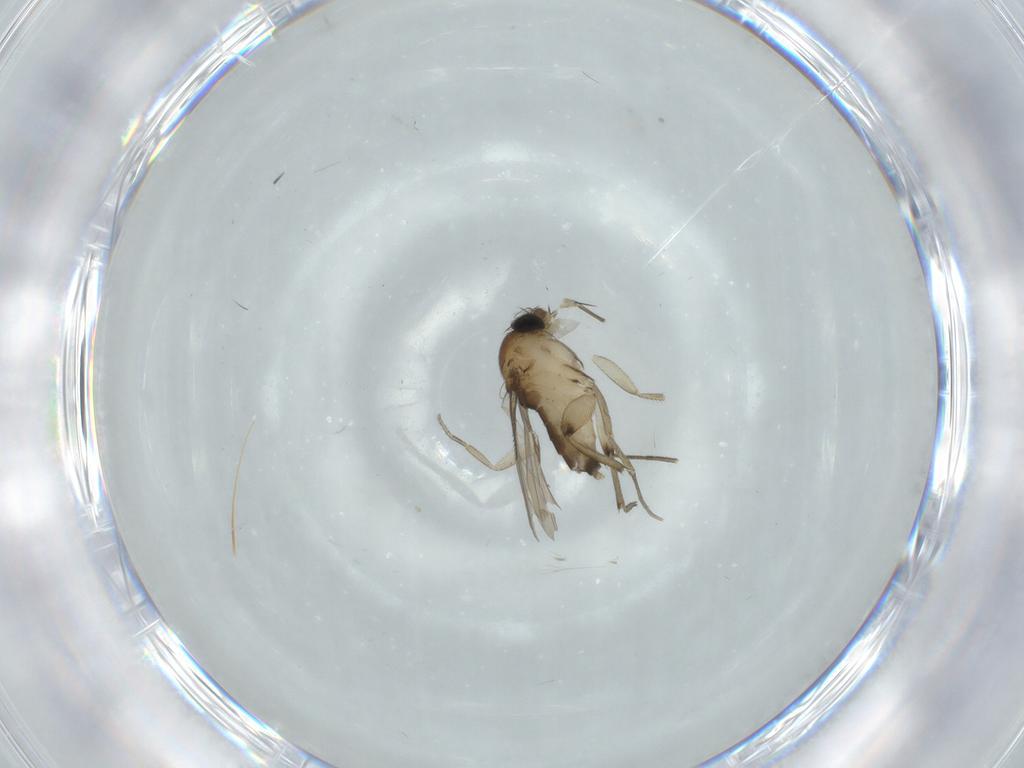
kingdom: Animalia
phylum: Arthropoda
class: Insecta
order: Diptera
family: Phoridae
